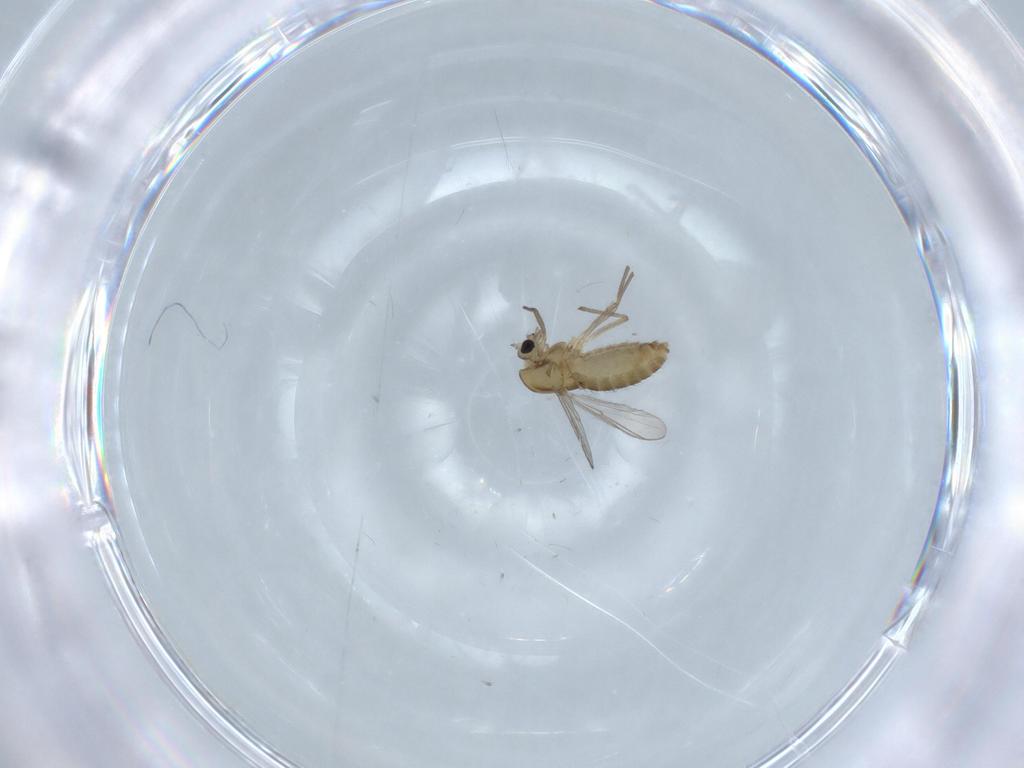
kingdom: Animalia
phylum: Arthropoda
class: Insecta
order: Diptera
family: Chironomidae
